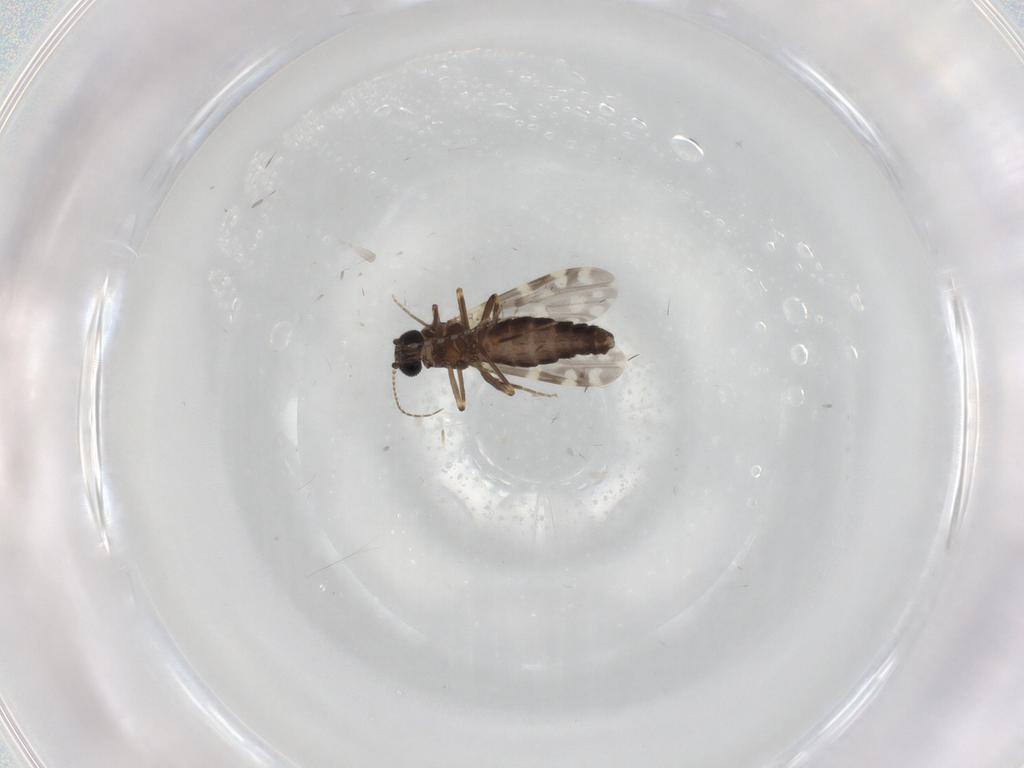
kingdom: Animalia
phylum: Arthropoda
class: Insecta
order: Diptera
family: Ceratopogonidae
